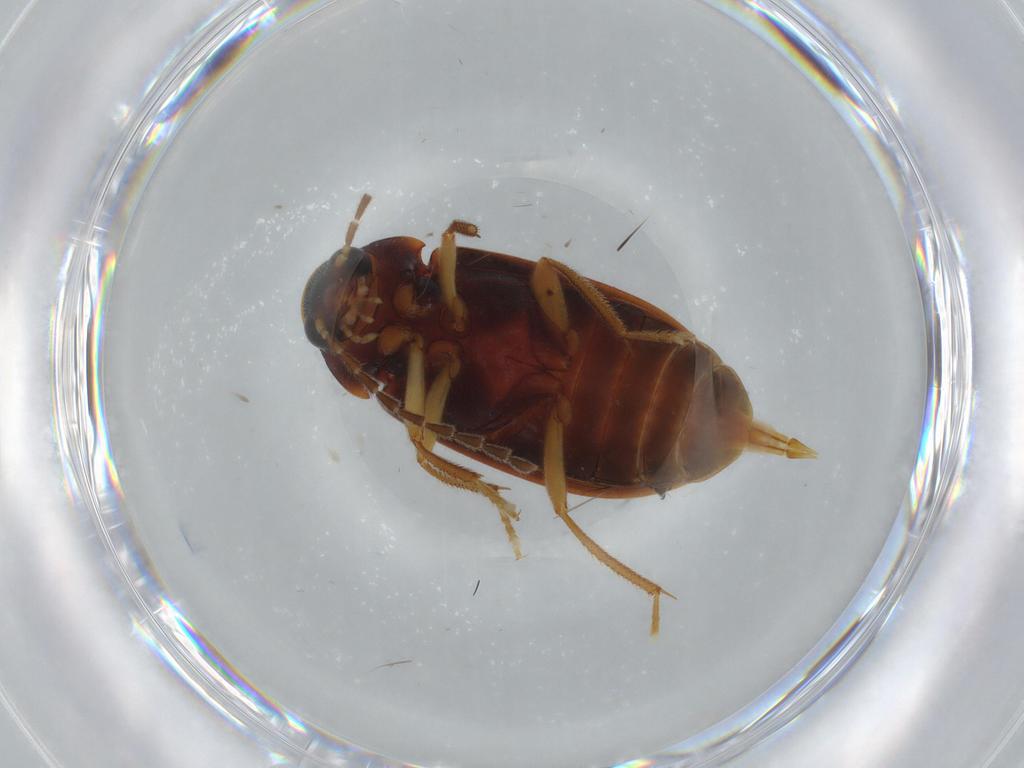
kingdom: Animalia
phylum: Arthropoda
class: Insecta
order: Coleoptera
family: Ptilodactylidae
